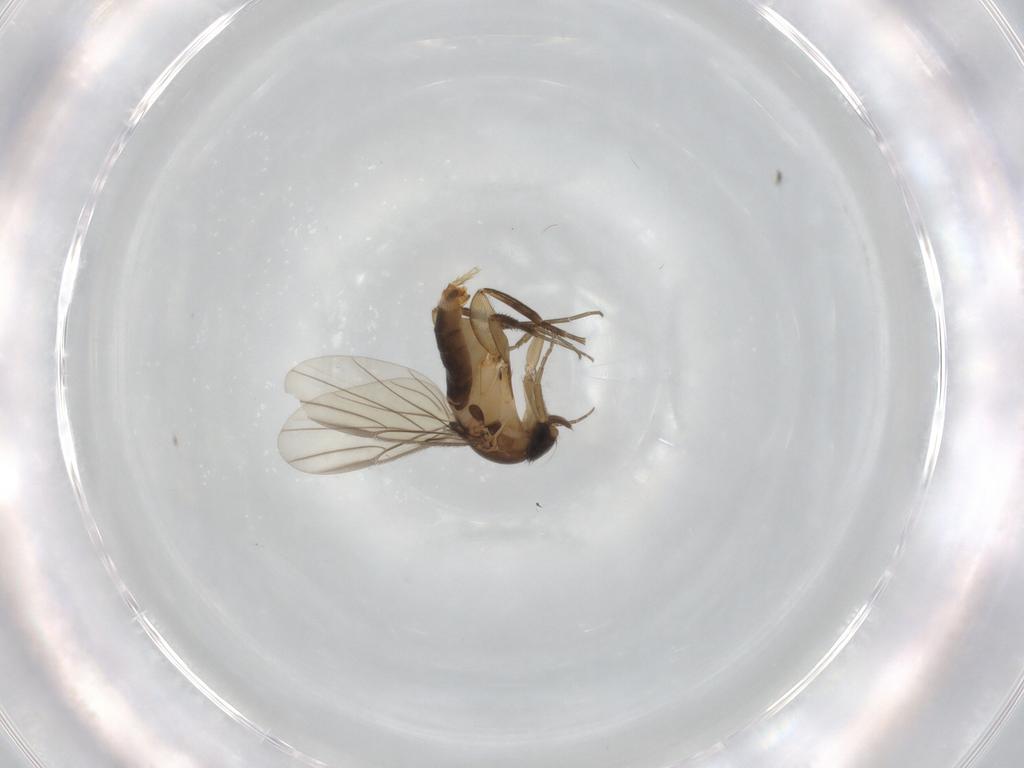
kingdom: Animalia
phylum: Arthropoda
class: Insecta
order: Diptera
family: Phoridae
